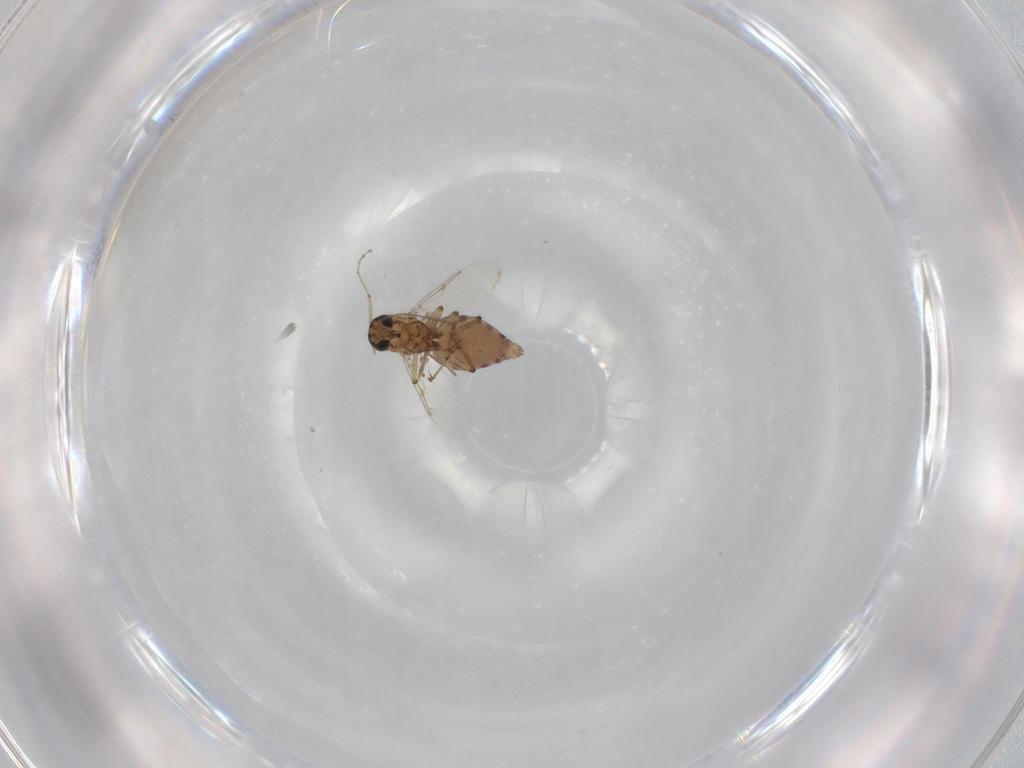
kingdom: Animalia
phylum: Arthropoda
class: Insecta
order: Diptera
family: Ceratopogonidae
